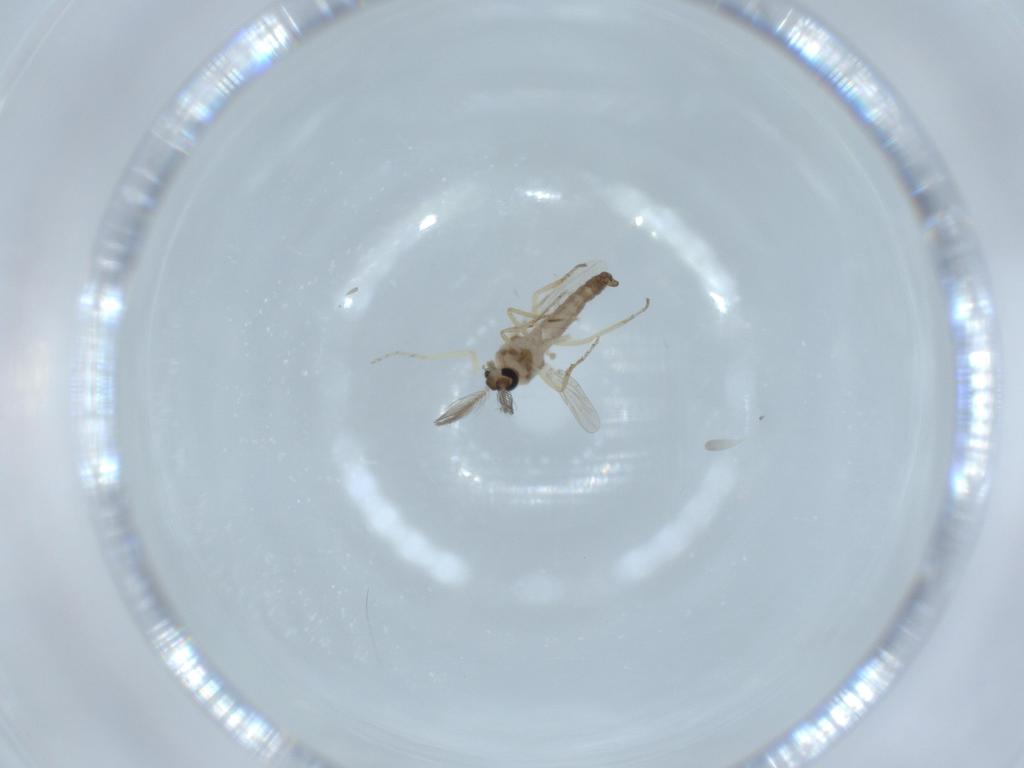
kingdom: Animalia
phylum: Arthropoda
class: Insecta
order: Diptera
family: Ceratopogonidae
